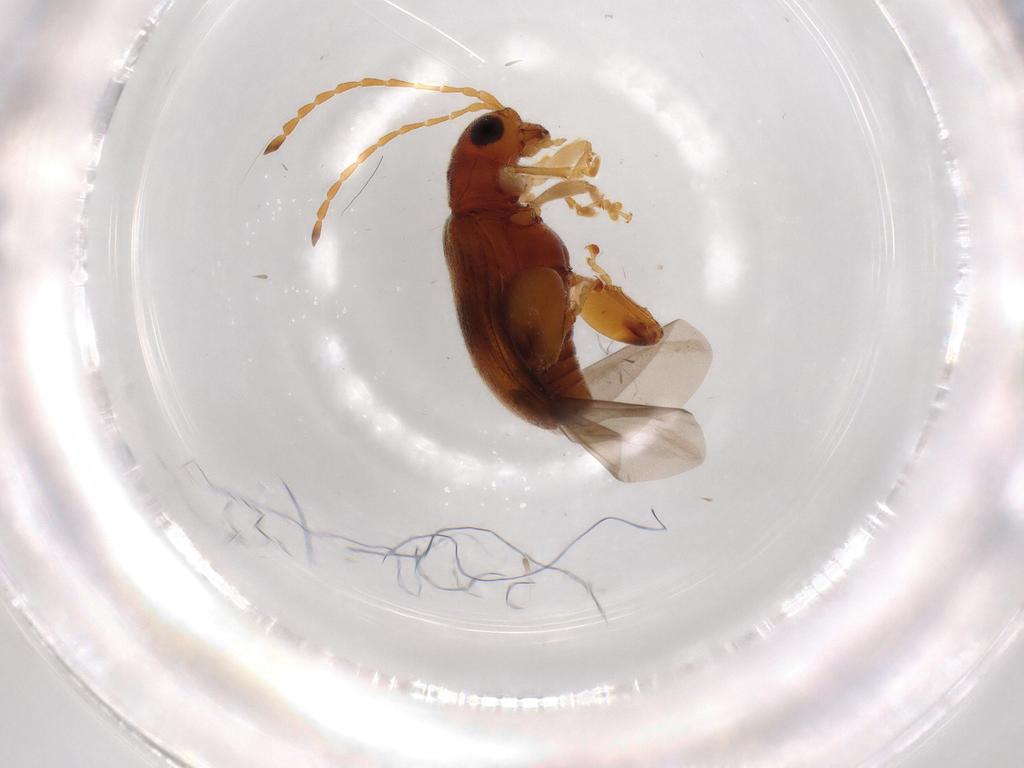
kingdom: Animalia
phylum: Arthropoda
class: Insecta
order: Coleoptera
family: Chrysomelidae
